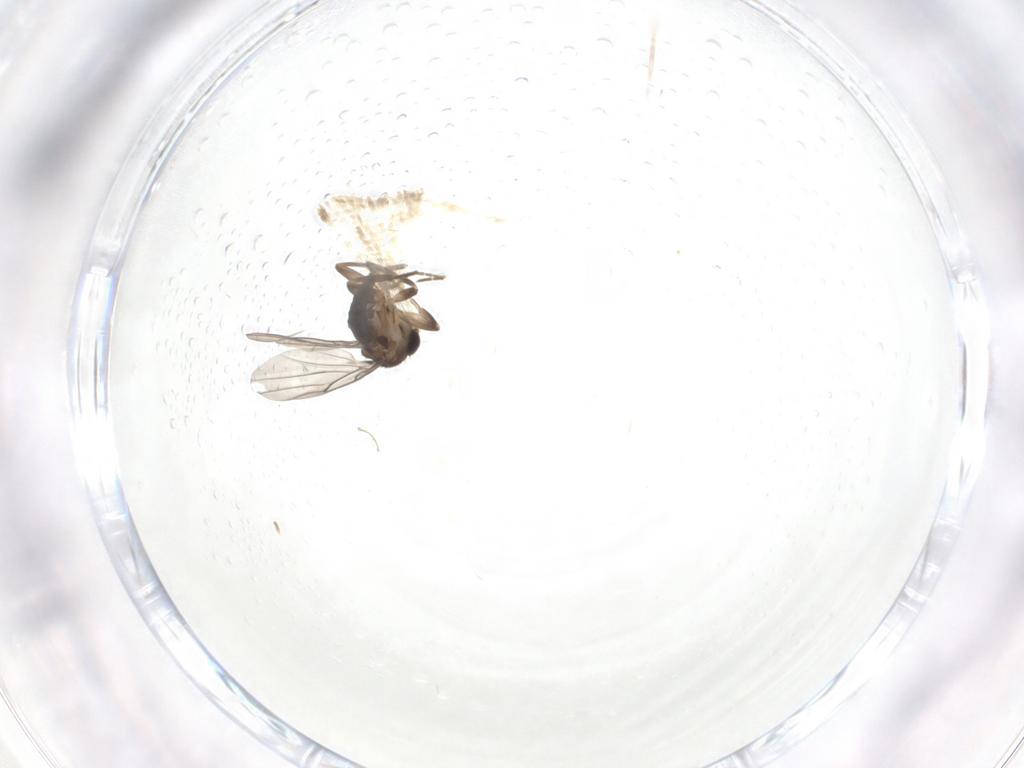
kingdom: Animalia
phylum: Arthropoda
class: Insecta
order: Diptera
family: Phoridae
